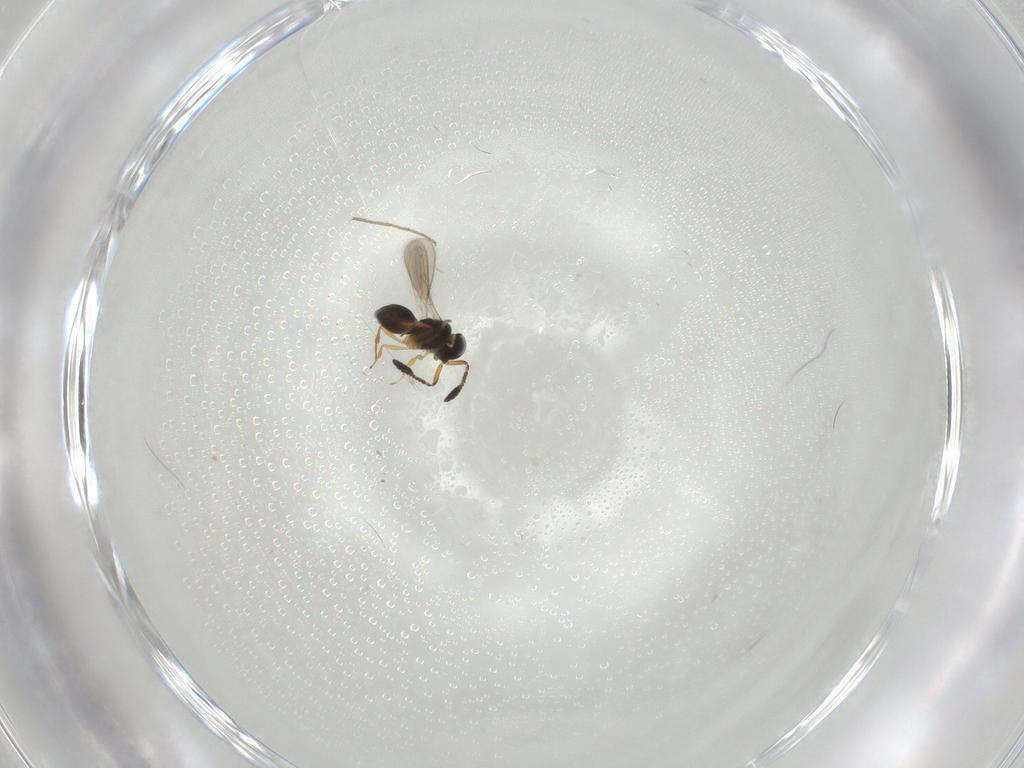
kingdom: Animalia
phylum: Arthropoda
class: Insecta
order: Hymenoptera
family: Scelionidae
